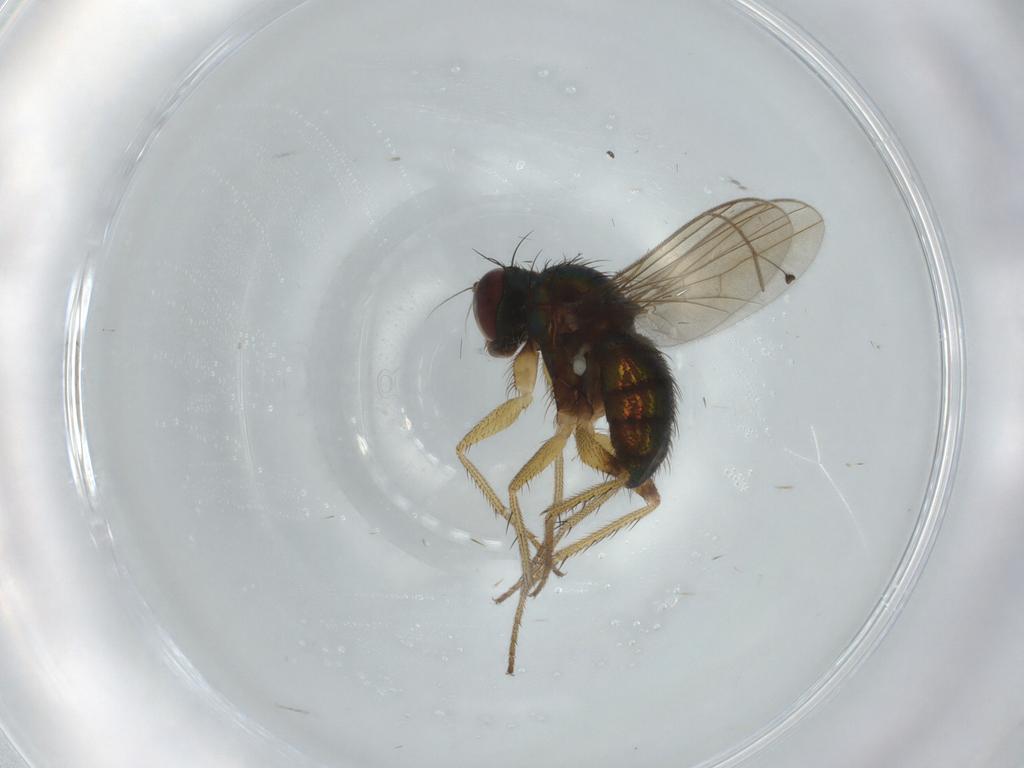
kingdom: Animalia
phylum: Arthropoda
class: Insecta
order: Diptera
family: Dolichopodidae
